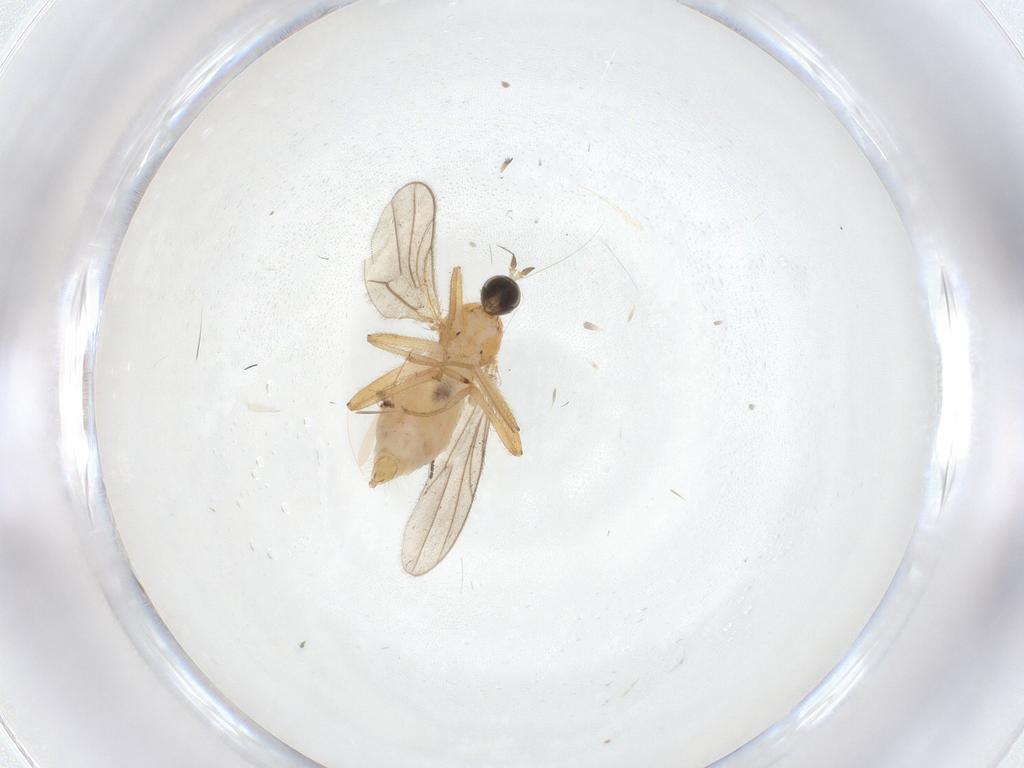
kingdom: Animalia
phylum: Arthropoda
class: Insecta
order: Diptera
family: Hybotidae
